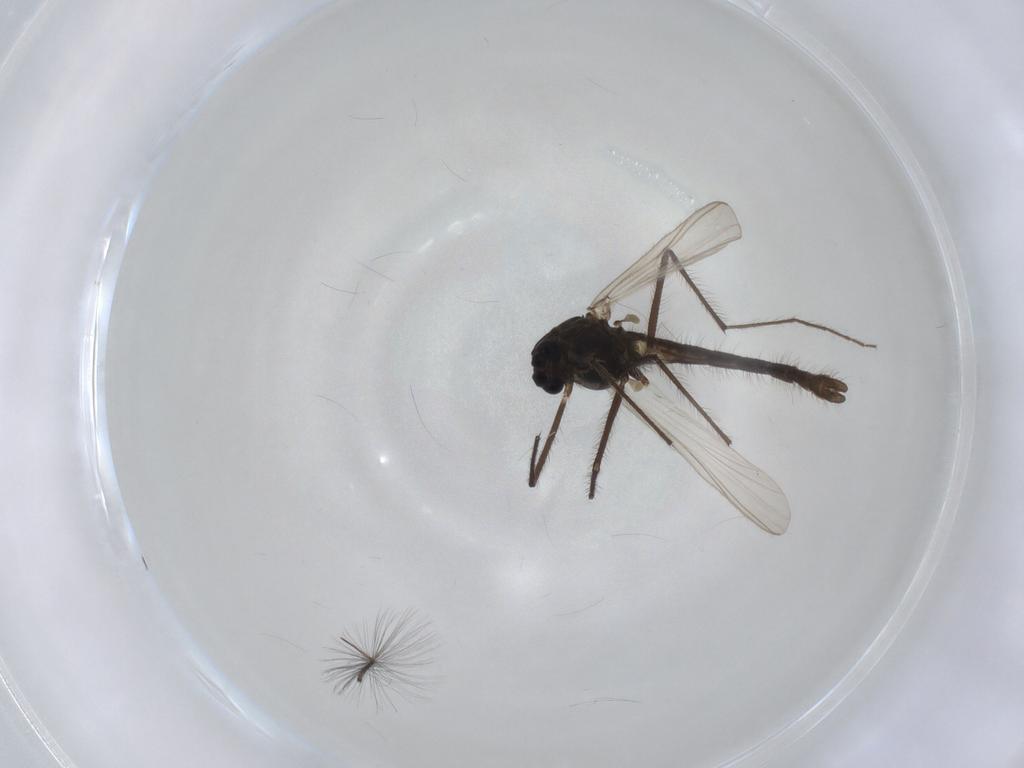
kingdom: Animalia
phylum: Arthropoda
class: Insecta
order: Diptera
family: Chironomidae
